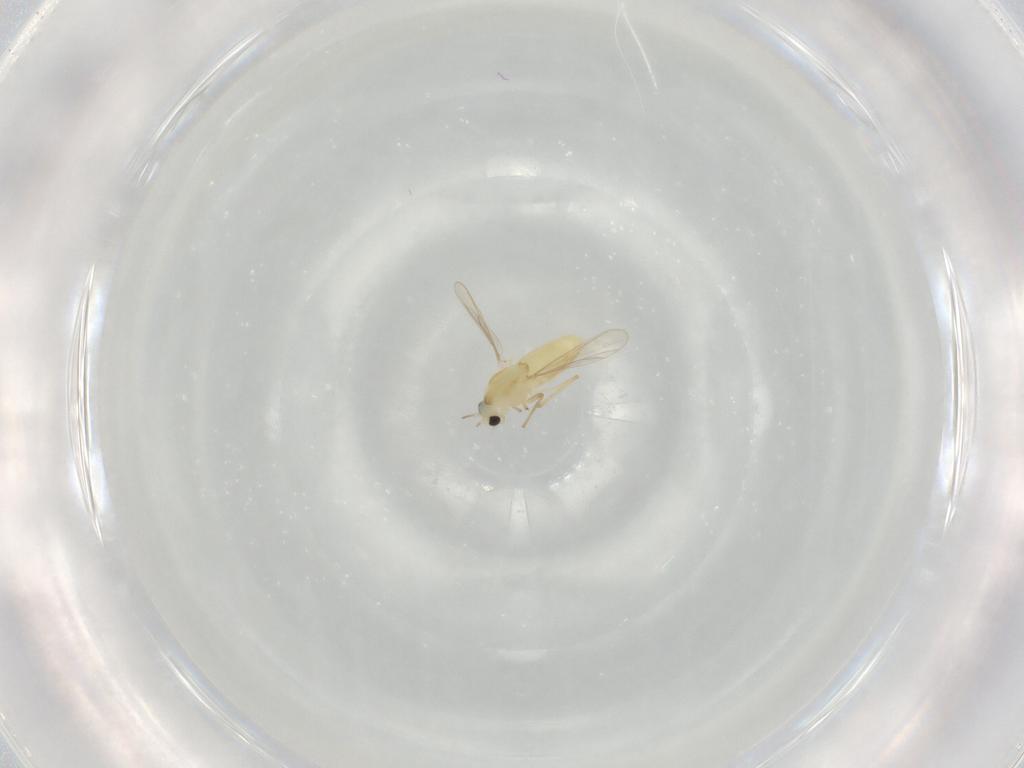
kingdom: Animalia
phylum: Arthropoda
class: Insecta
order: Diptera
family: Chironomidae
